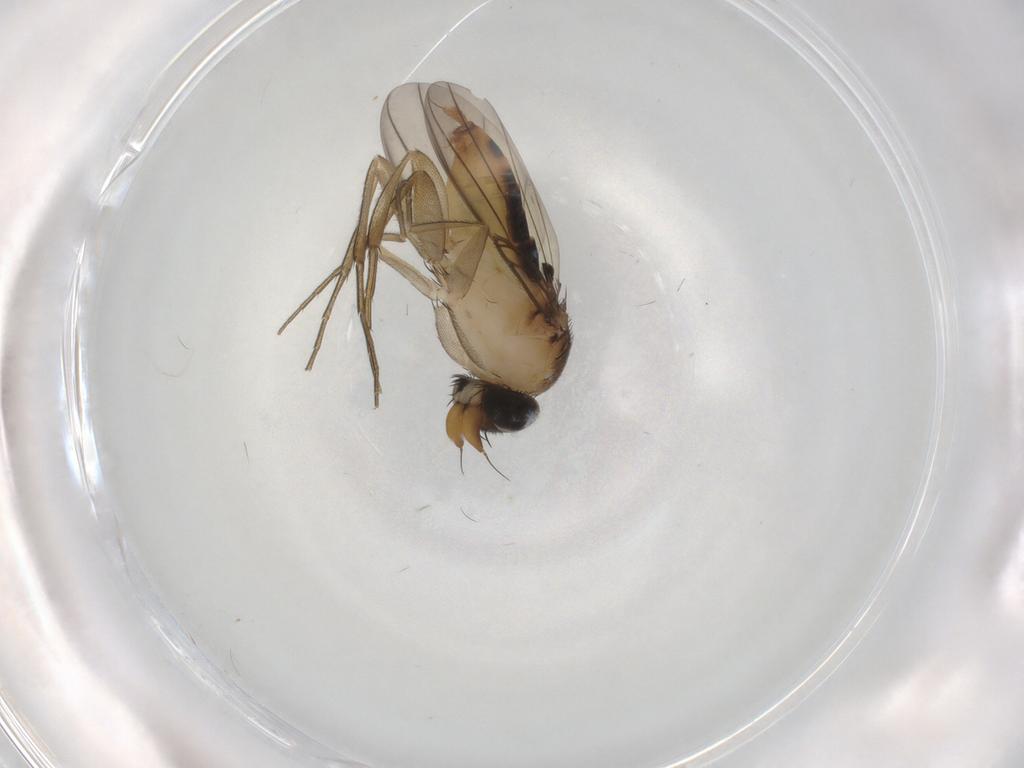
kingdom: Animalia
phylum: Arthropoda
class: Insecta
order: Diptera
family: Phoridae
